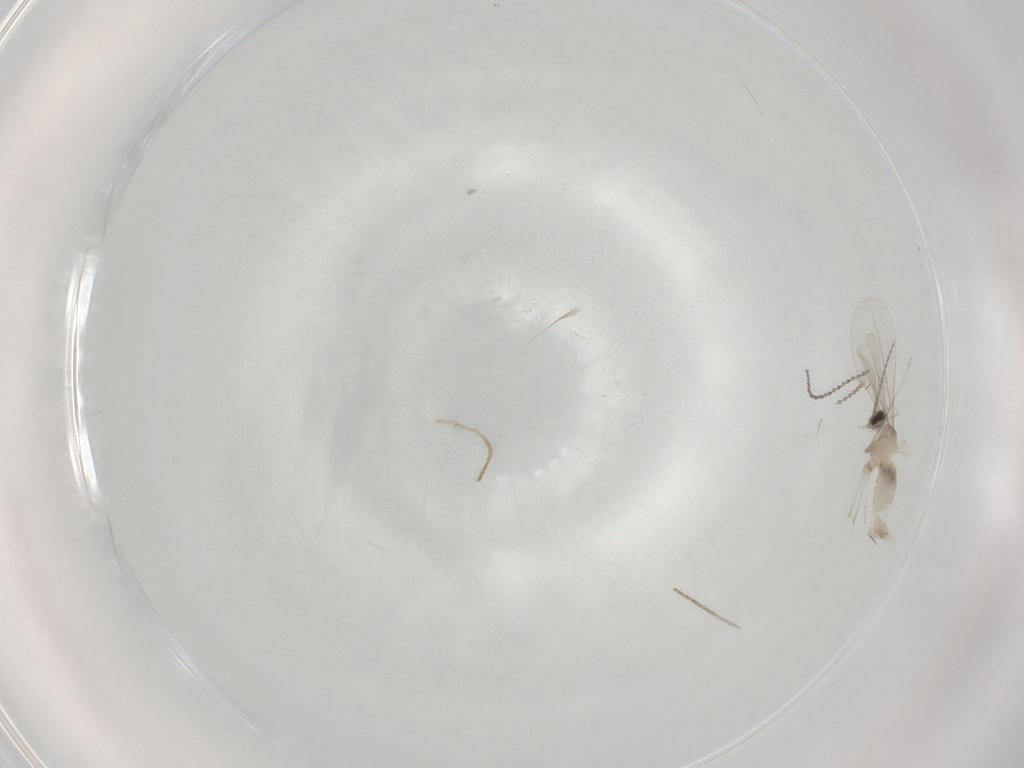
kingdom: Animalia
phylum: Arthropoda
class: Insecta
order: Diptera
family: Cecidomyiidae
